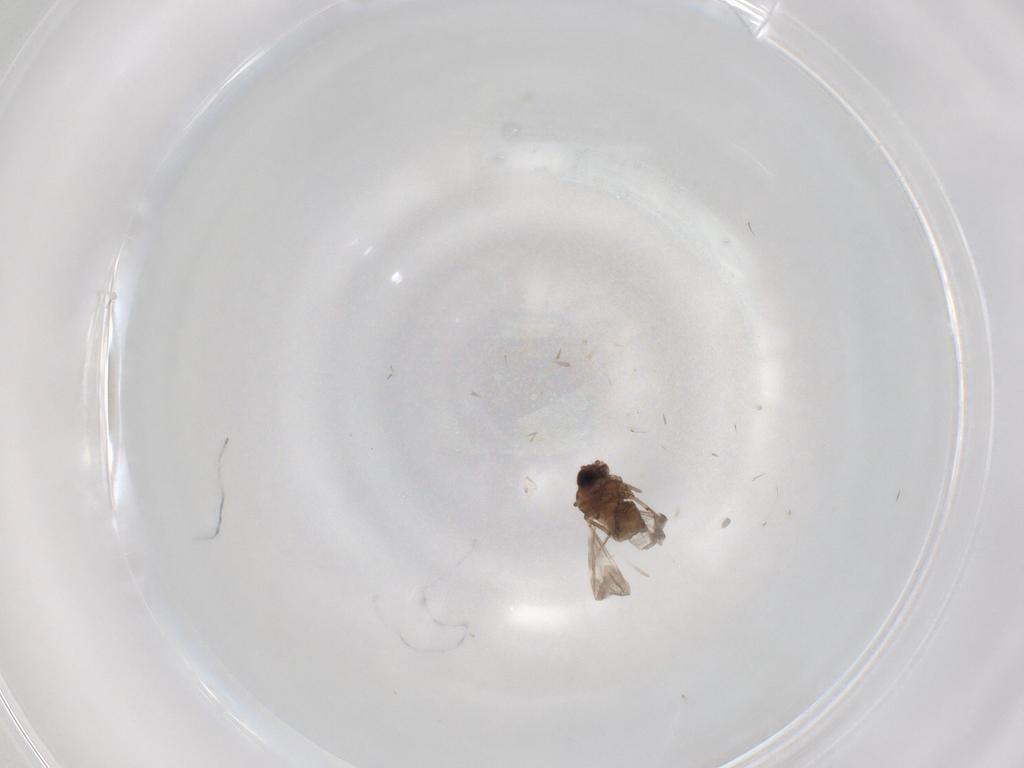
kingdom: Animalia
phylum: Arthropoda
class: Insecta
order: Diptera
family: Ceratopogonidae
